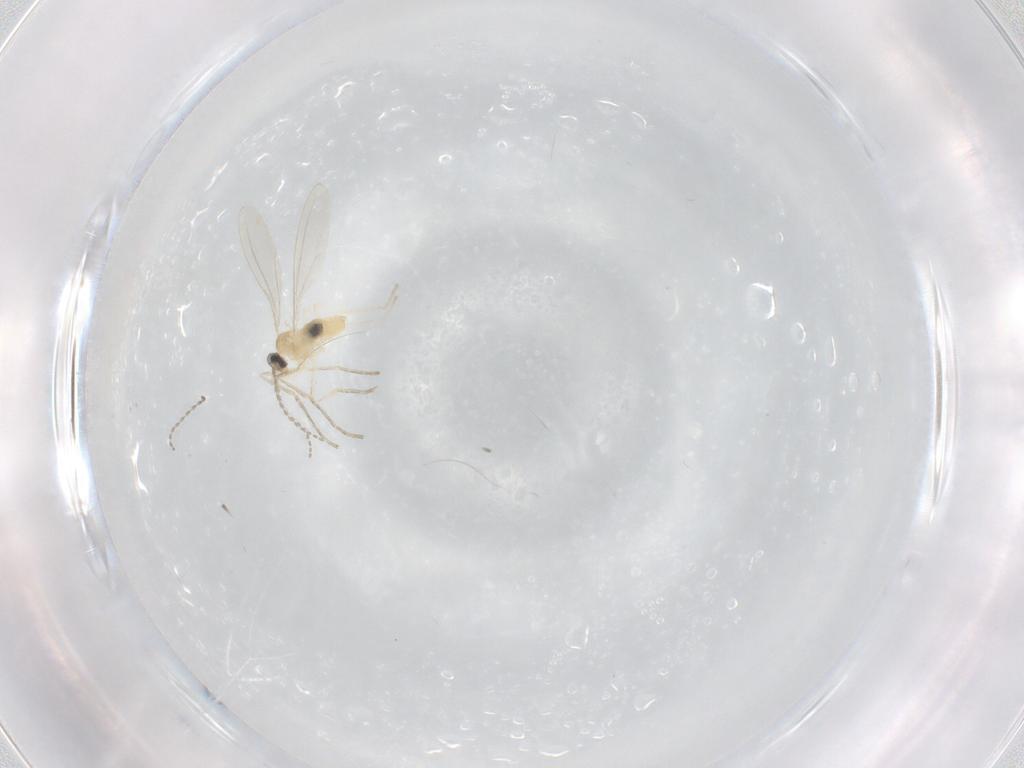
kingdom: Animalia
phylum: Arthropoda
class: Insecta
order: Diptera
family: Cecidomyiidae
